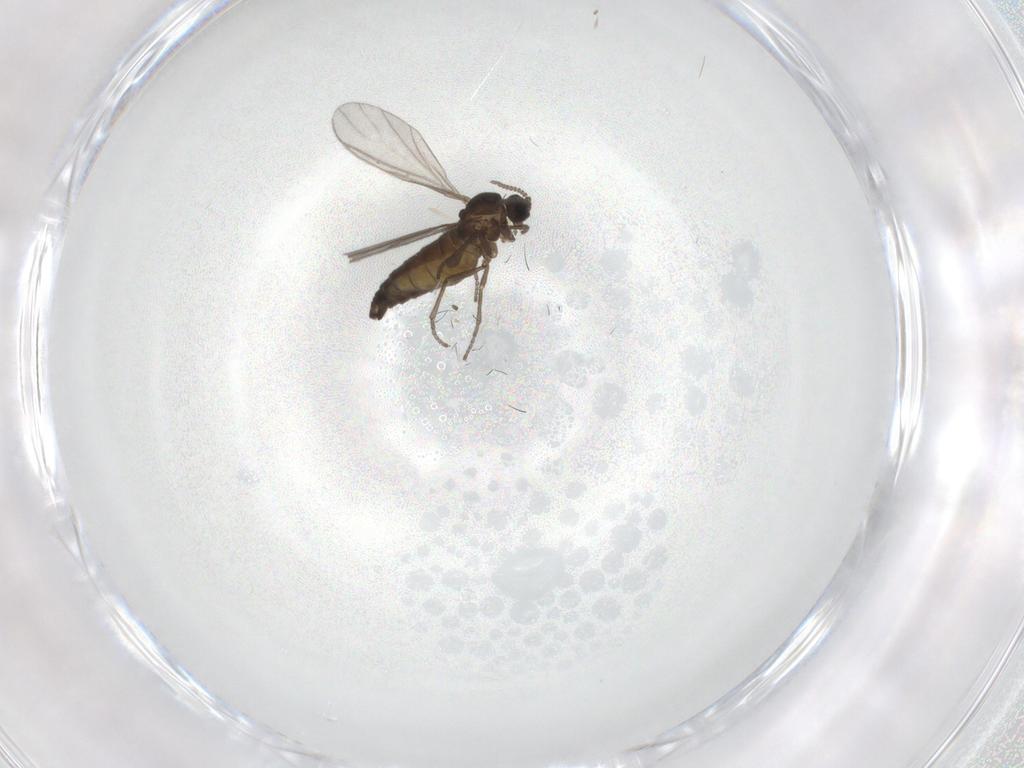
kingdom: Animalia
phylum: Arthropoda
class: Insecta
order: Diptera
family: Sciaridae
